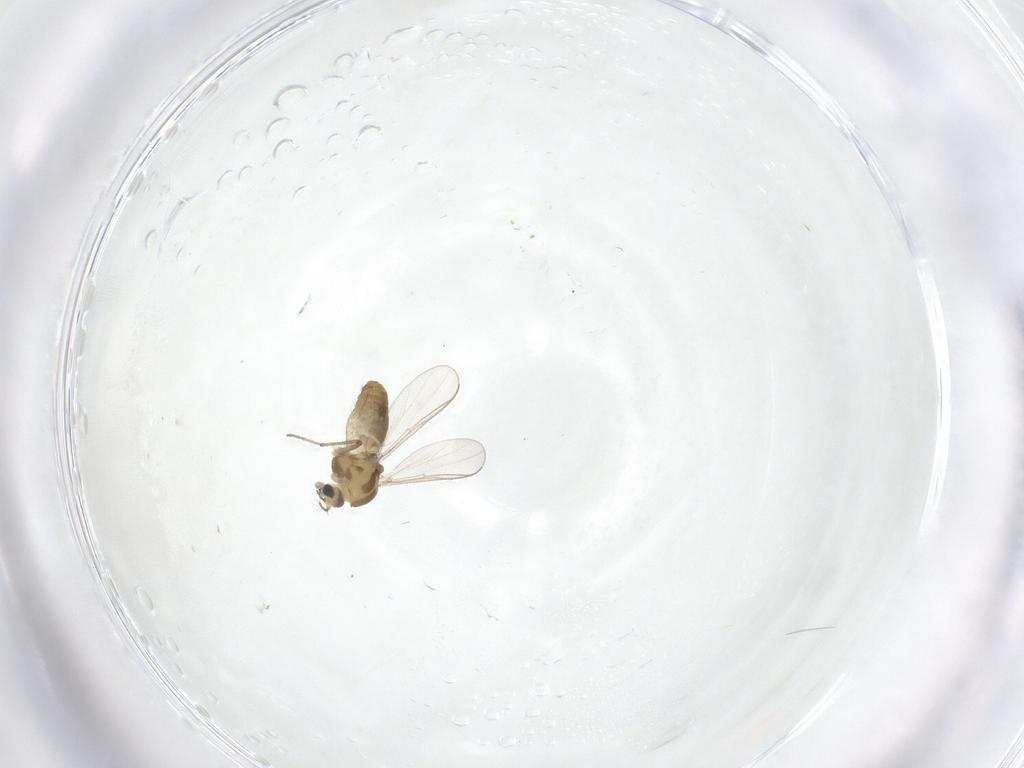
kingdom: Animalia
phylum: Arthropoda
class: Insecta
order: Diptera
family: Chironomidae
